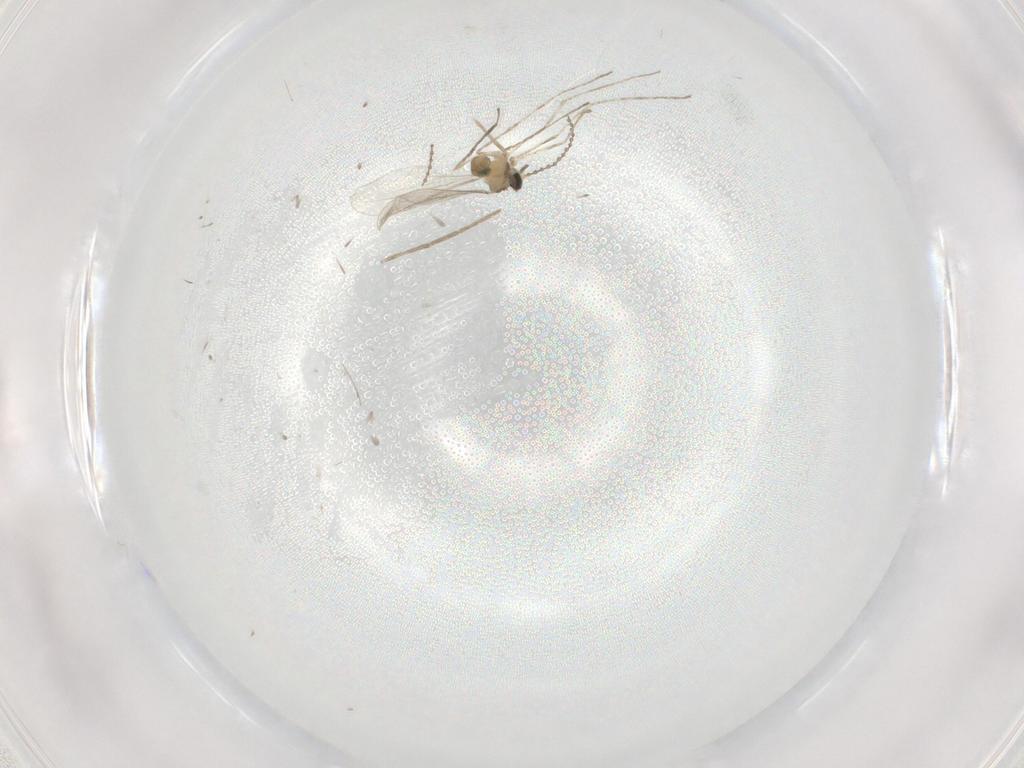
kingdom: Animalia
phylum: Arthropoda
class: Insecta
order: Diptera
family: Cecidomyiidae
